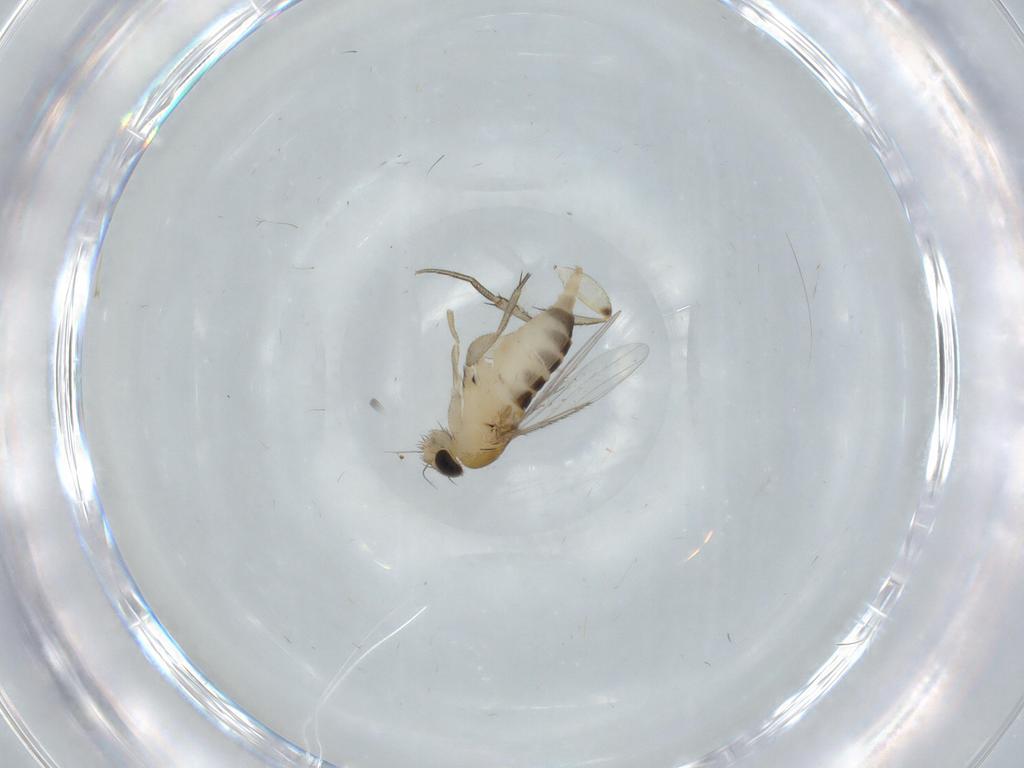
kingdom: Animalia
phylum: Arthropoda
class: Insecta
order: Diptera
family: Phoridae
